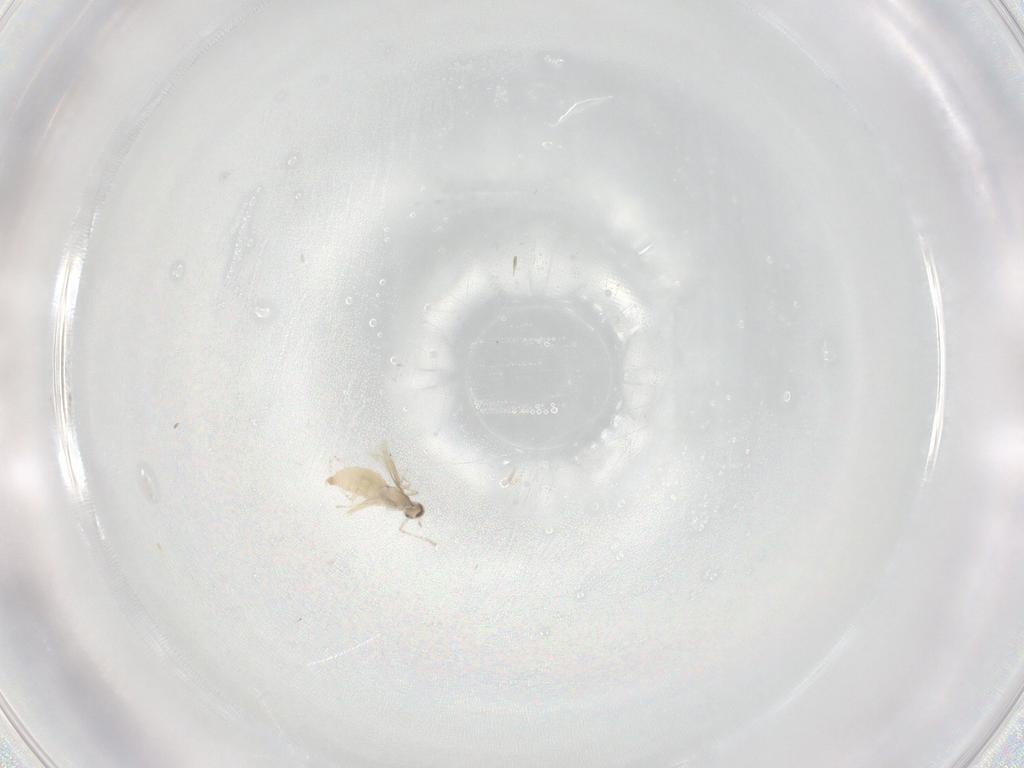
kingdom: Animalia
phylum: Arthropoda
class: Insecta
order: Diptera
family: Cecidomyiidae
